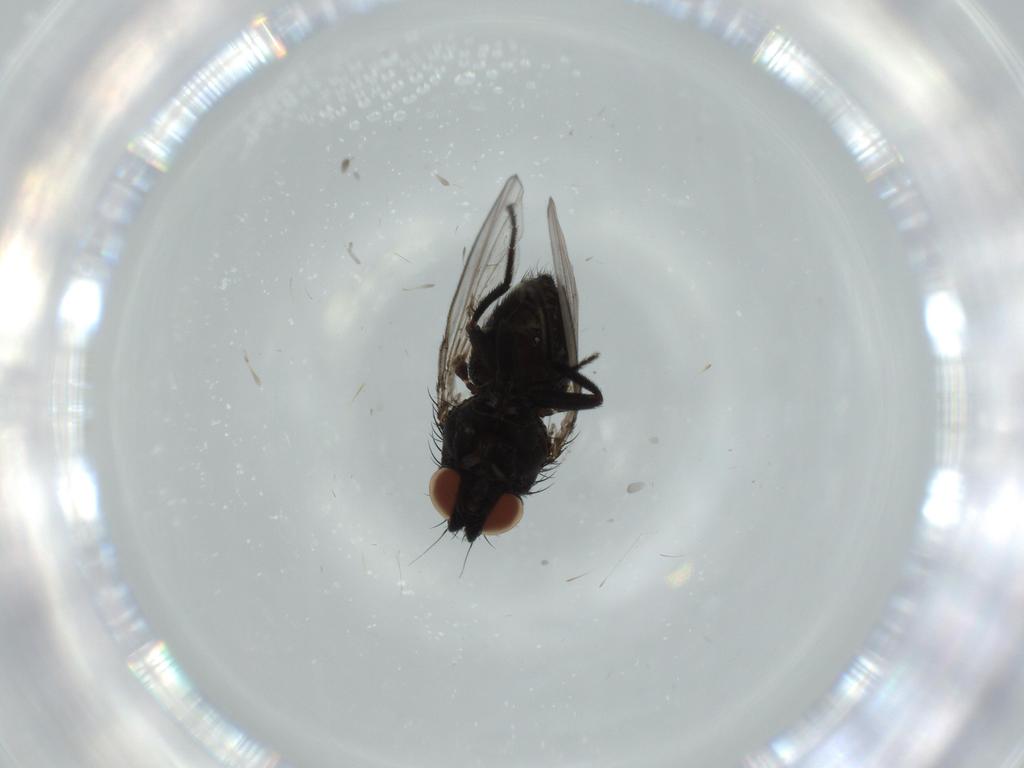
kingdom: Animalia
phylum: Arthropoda
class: Insecta
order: Diptera
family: Milichiidae
